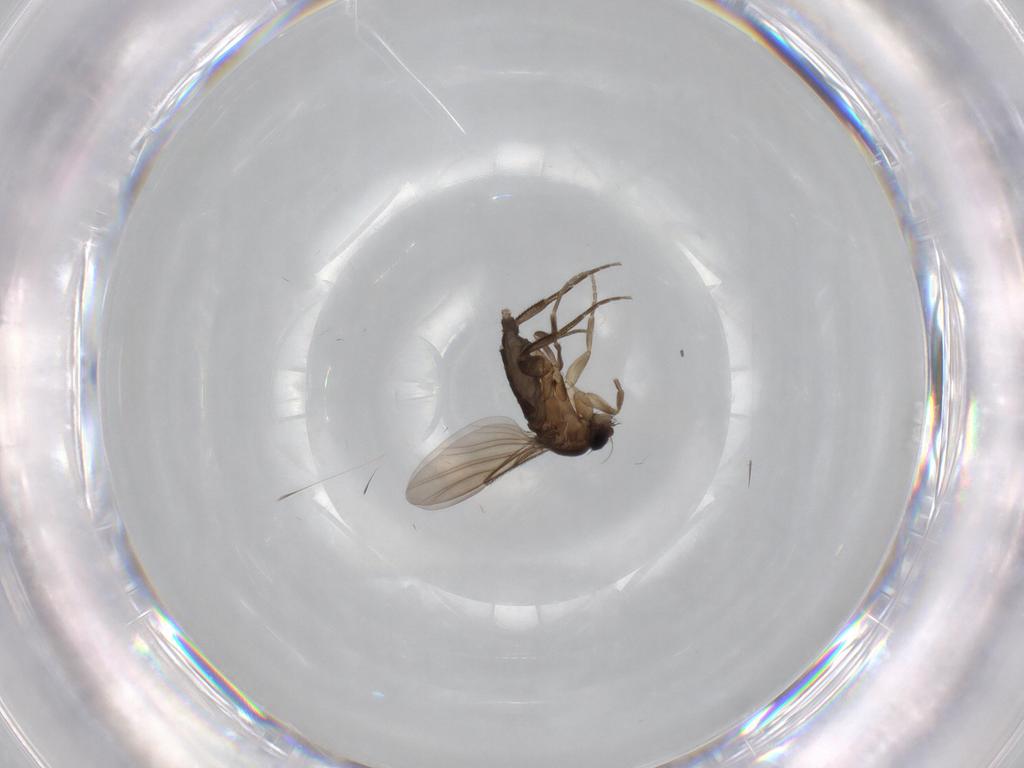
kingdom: Animalia
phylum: Arthropoda
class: Insecta
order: Diptera
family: Phoridae
